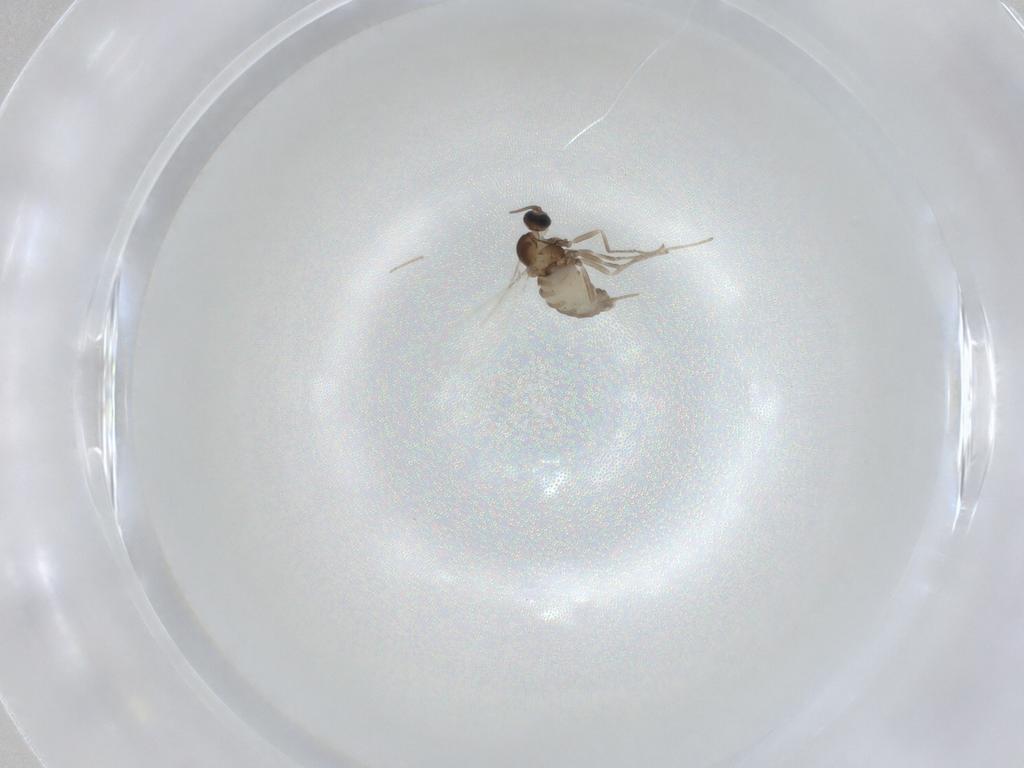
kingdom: Animalia
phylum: Arthropoda
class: Insecta
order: Diptera
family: Cecidomyiidae
